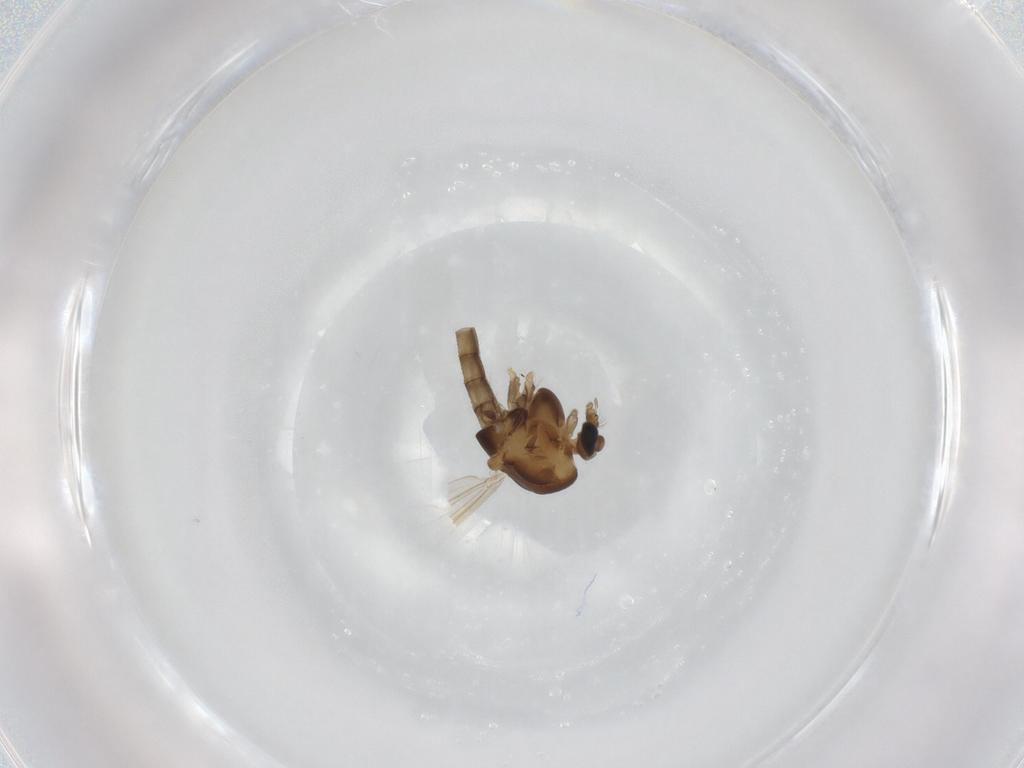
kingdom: Animalia
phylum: Arthropoda
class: Insecta
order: Diptera
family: Chironomidae
